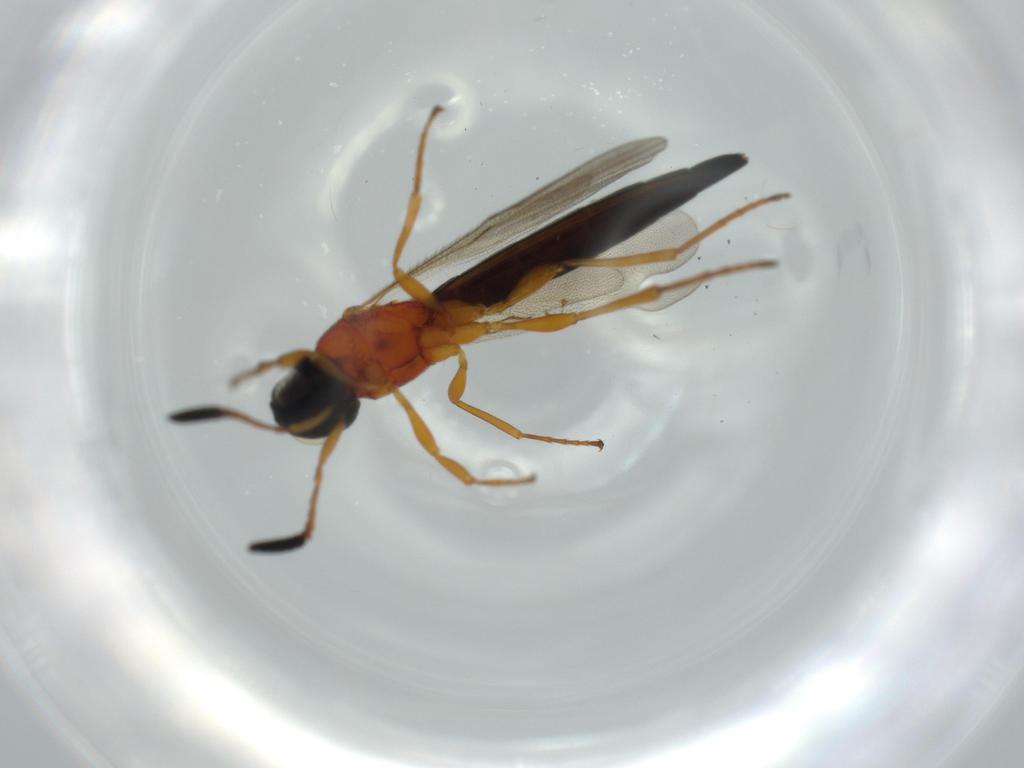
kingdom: Animalia
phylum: Arthropoda
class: Insecta
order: Hymenoptera
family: Scelionidae
